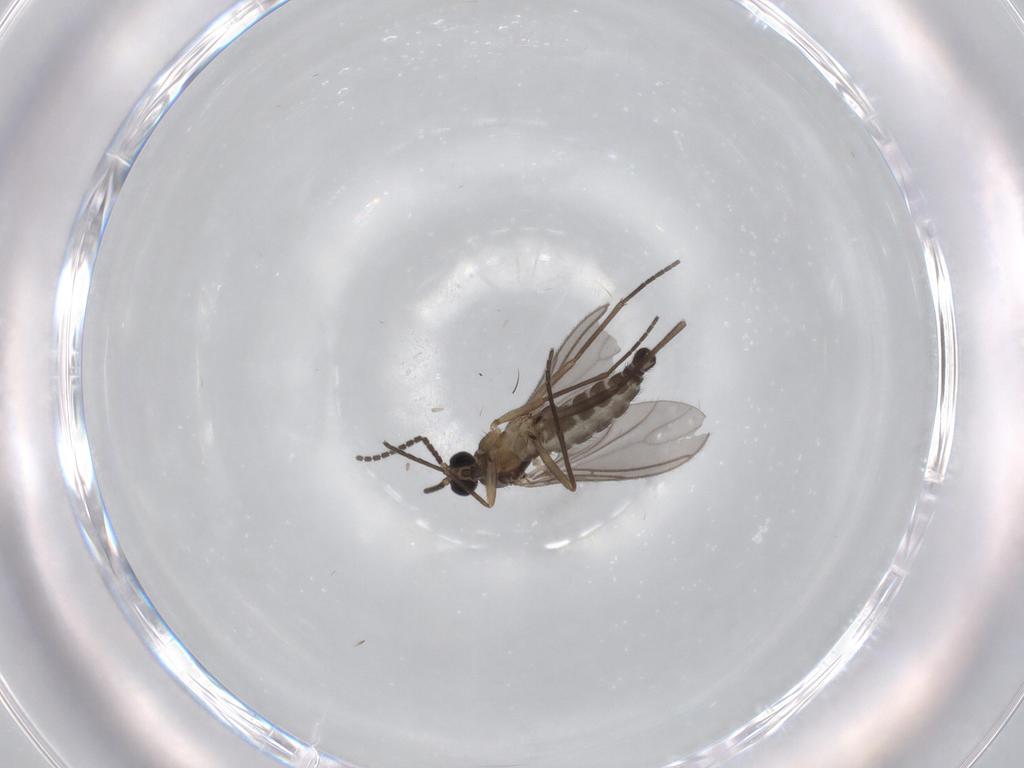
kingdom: Animalia
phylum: Arthropoda
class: Insecta
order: Diptera
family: Sciaridae
